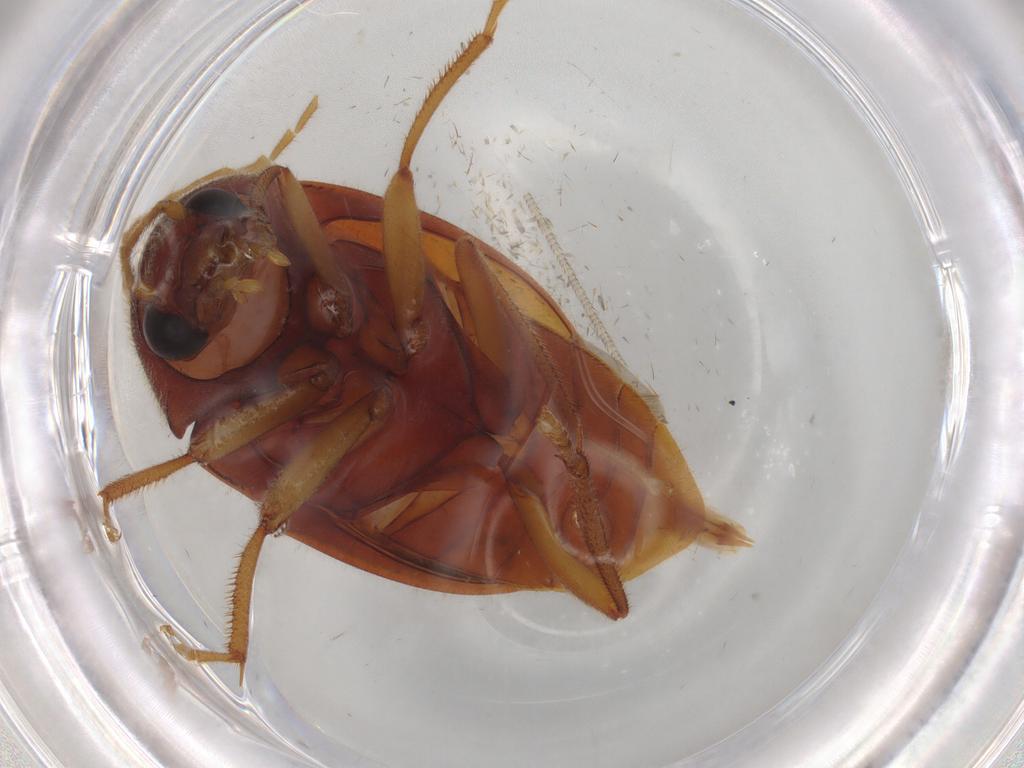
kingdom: Animalia
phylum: Arthropoda
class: Insecta
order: Coleoptera
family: Ptilodactylidae
